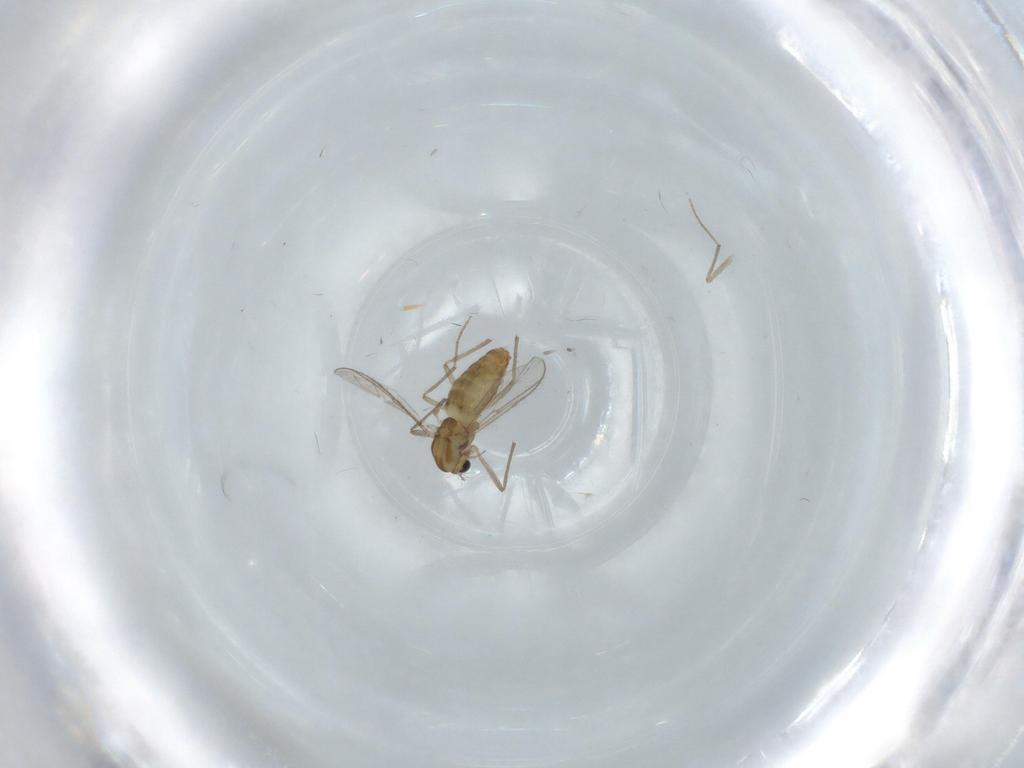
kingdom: Animalia
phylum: Arthropoda
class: Insecta
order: Diptera
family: Chironomidae
